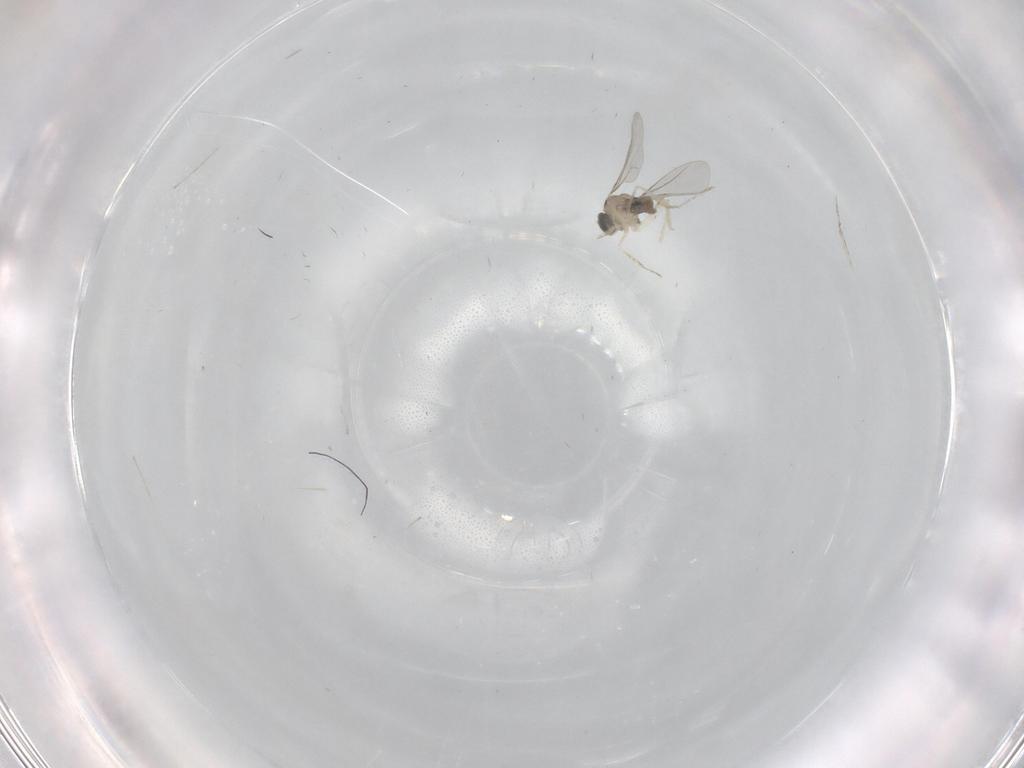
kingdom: Animalia
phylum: Arthropoda
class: Insecta
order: Diptera
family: Cecidomyiidae
